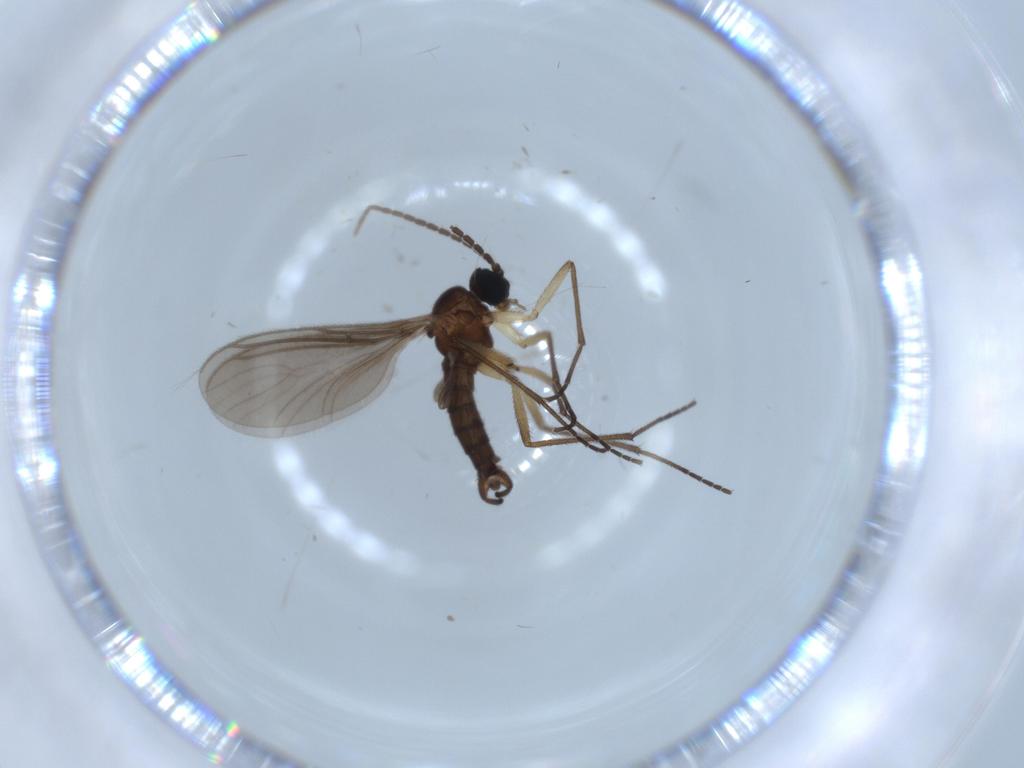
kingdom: Animalia
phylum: Arthropoda
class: Insecta
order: Diptera
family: Sciaridae
